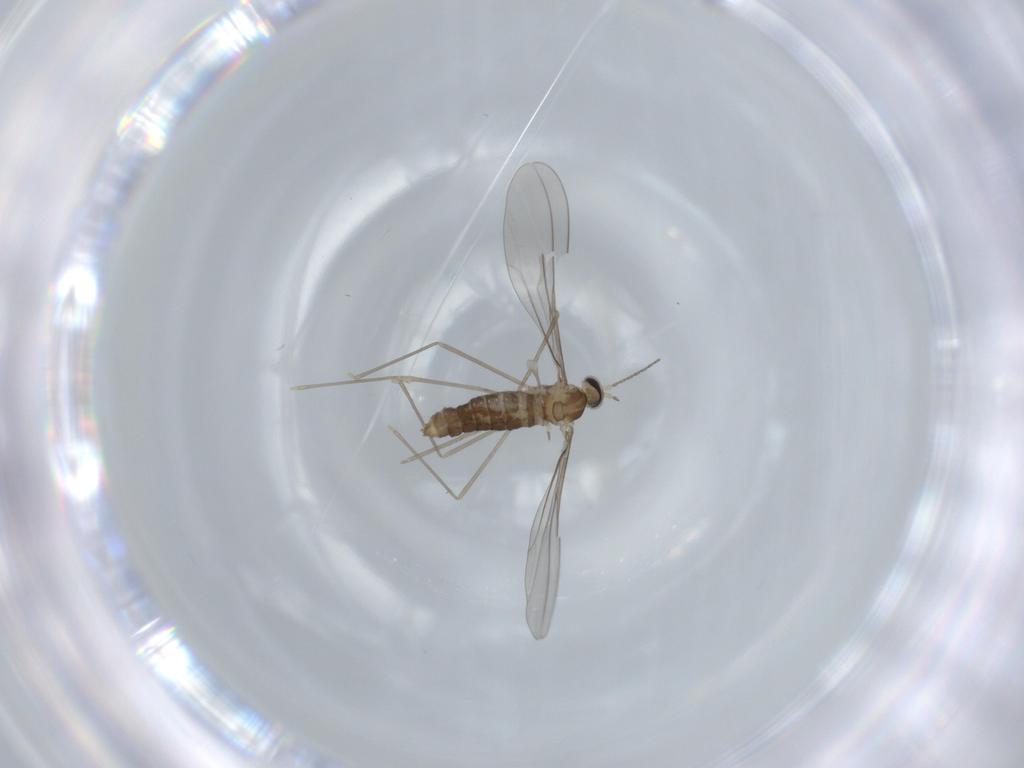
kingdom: Animalia
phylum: Arthropoda
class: Insecta
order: Diptera
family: Cecidomyiidae
